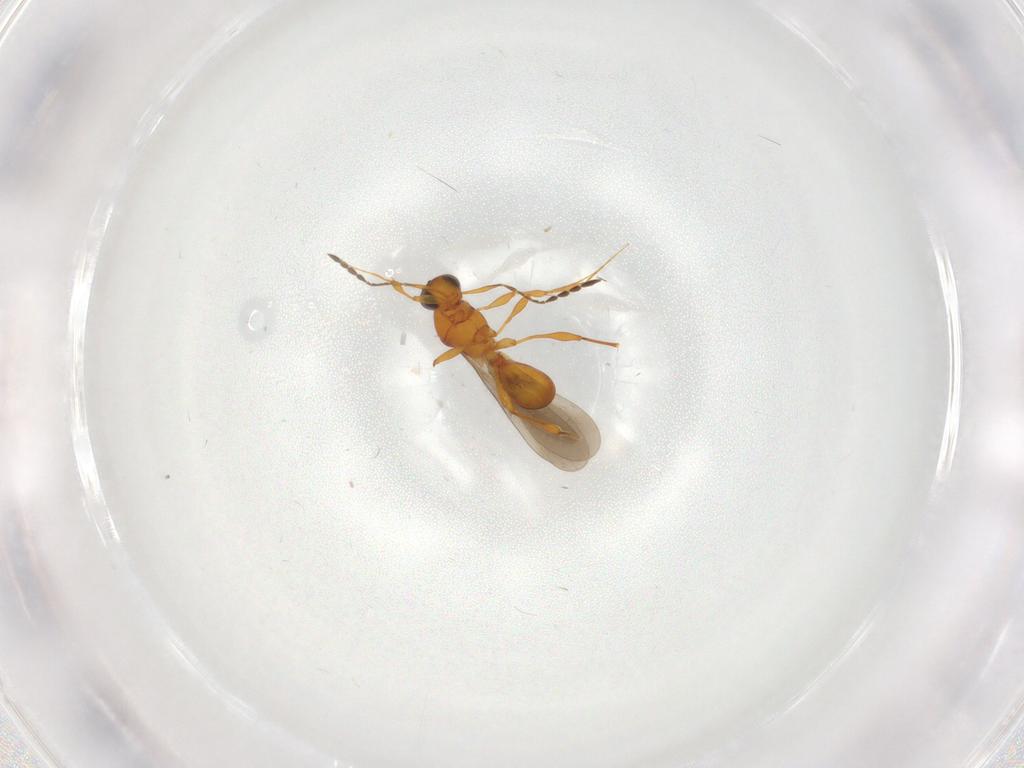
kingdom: Animalia
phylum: Arthropoda
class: Insecta
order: Hymenoptera
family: Platygastridae
